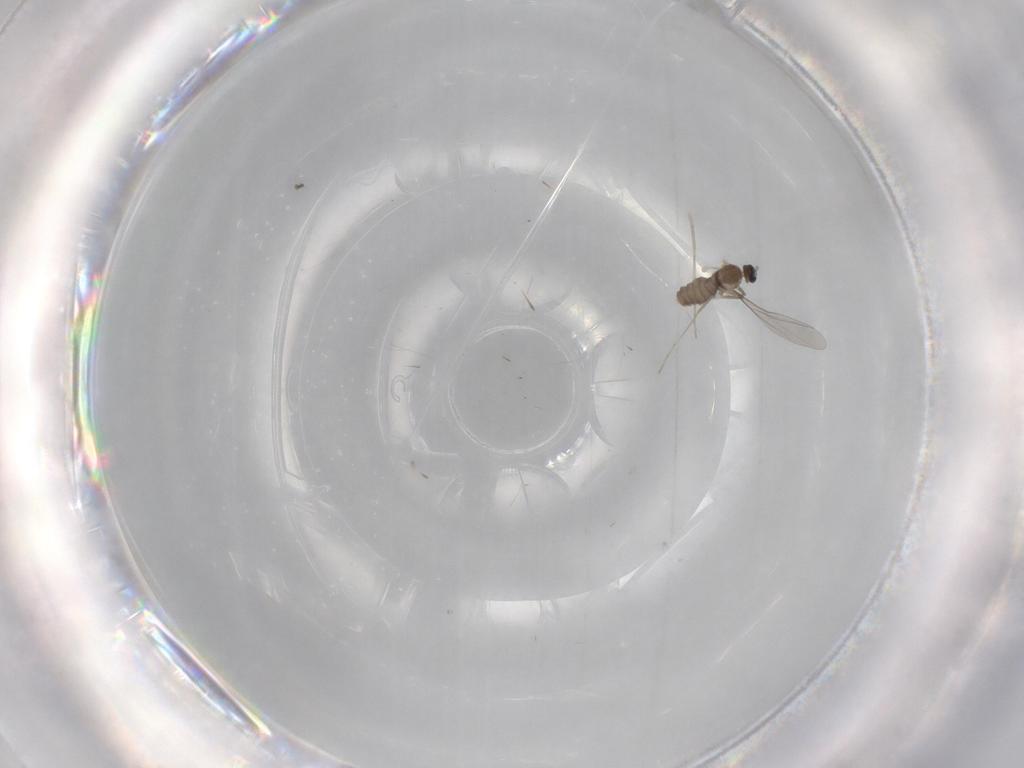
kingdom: Animalia
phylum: Arthropoda
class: Insecta
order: Diptera
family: Cecidomyiidae
